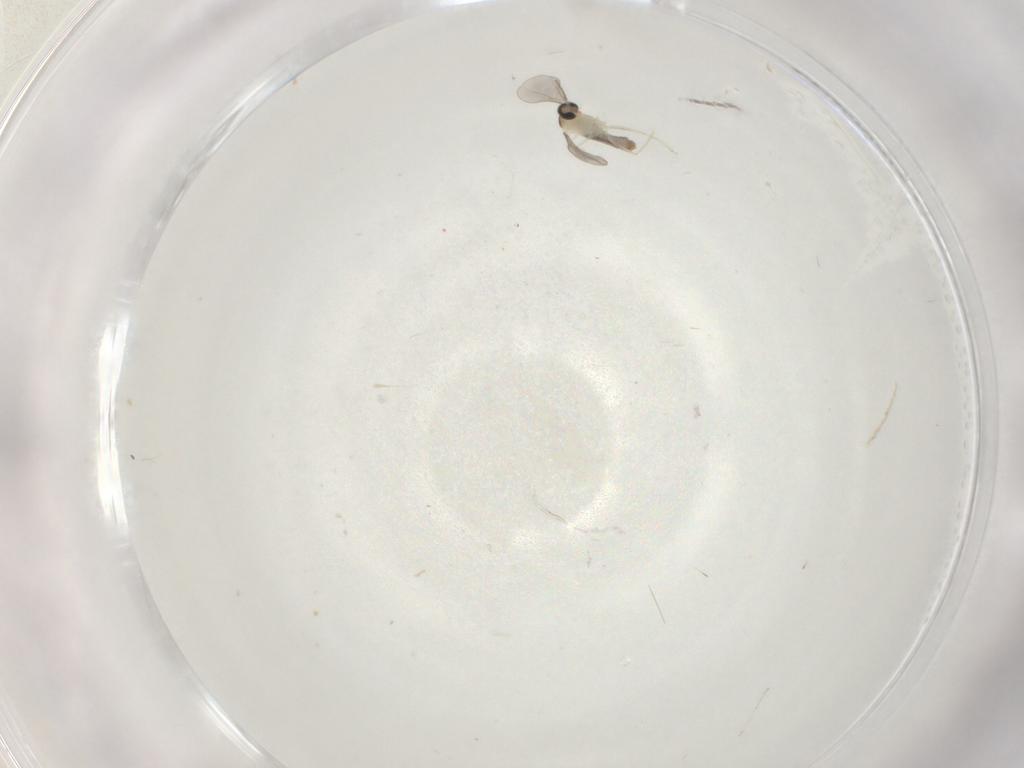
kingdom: Animalia
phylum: Arthropoda
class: Insecta
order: Diptera
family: Cecidomyiidae
